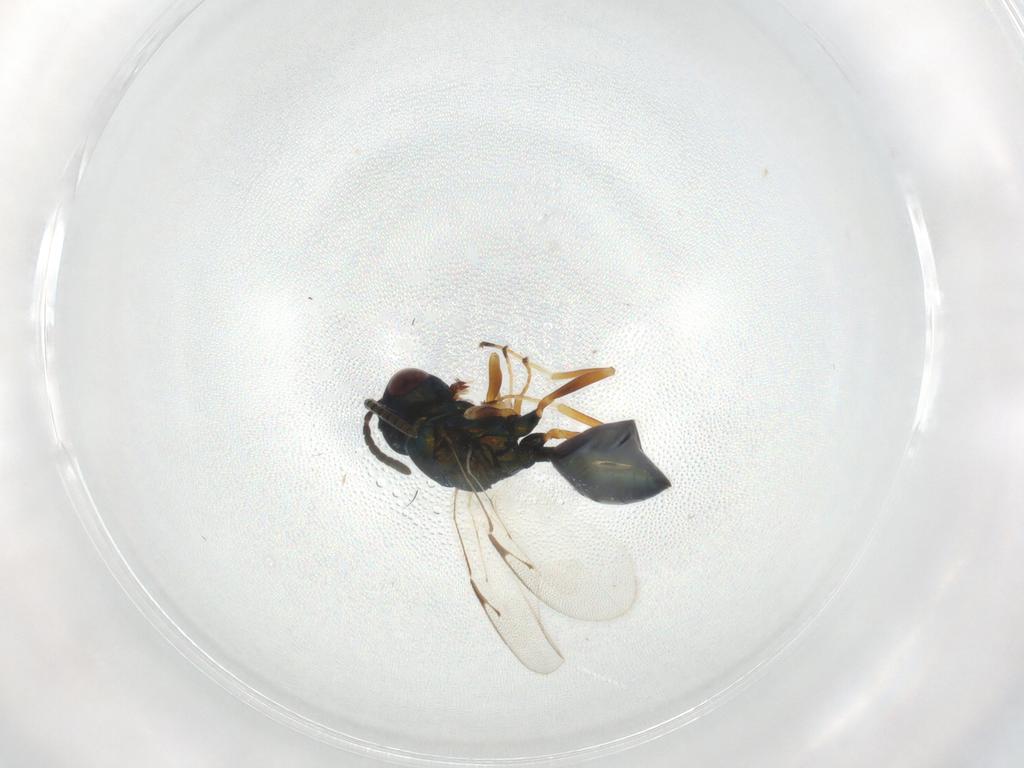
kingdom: Animalia
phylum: Arthropoda
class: Insecta
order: Hymenoptera
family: Pteromalidae
